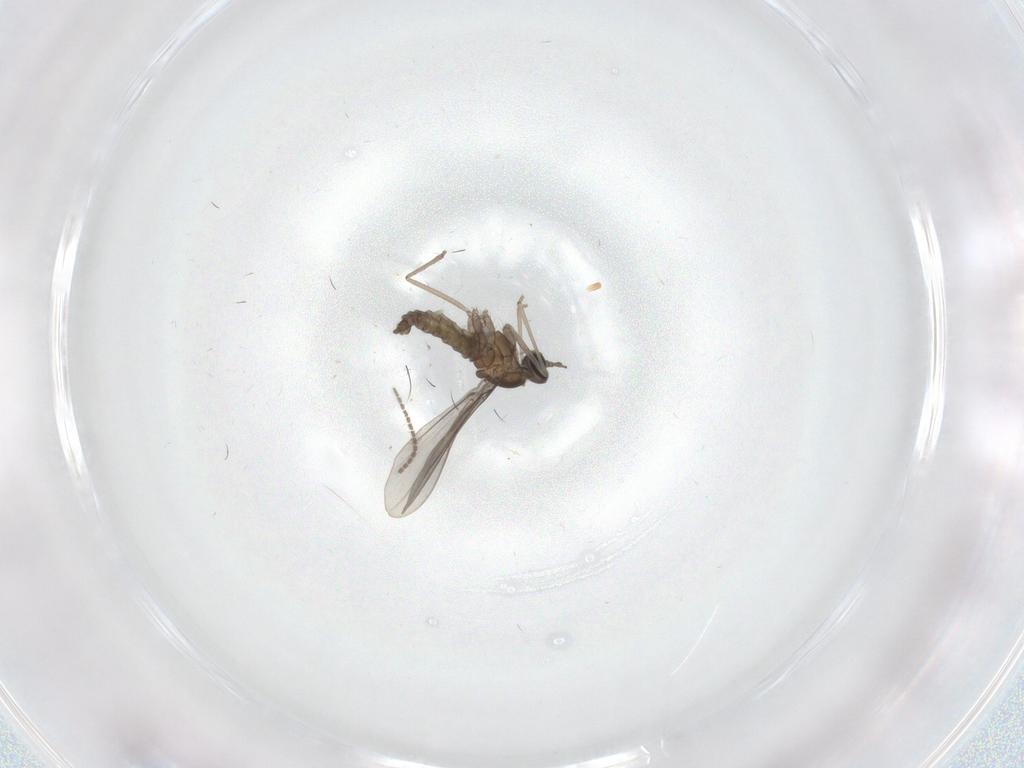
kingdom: Animalia
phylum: Arthropoda
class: Insecta
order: Diptera
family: Cecidomyiidae
